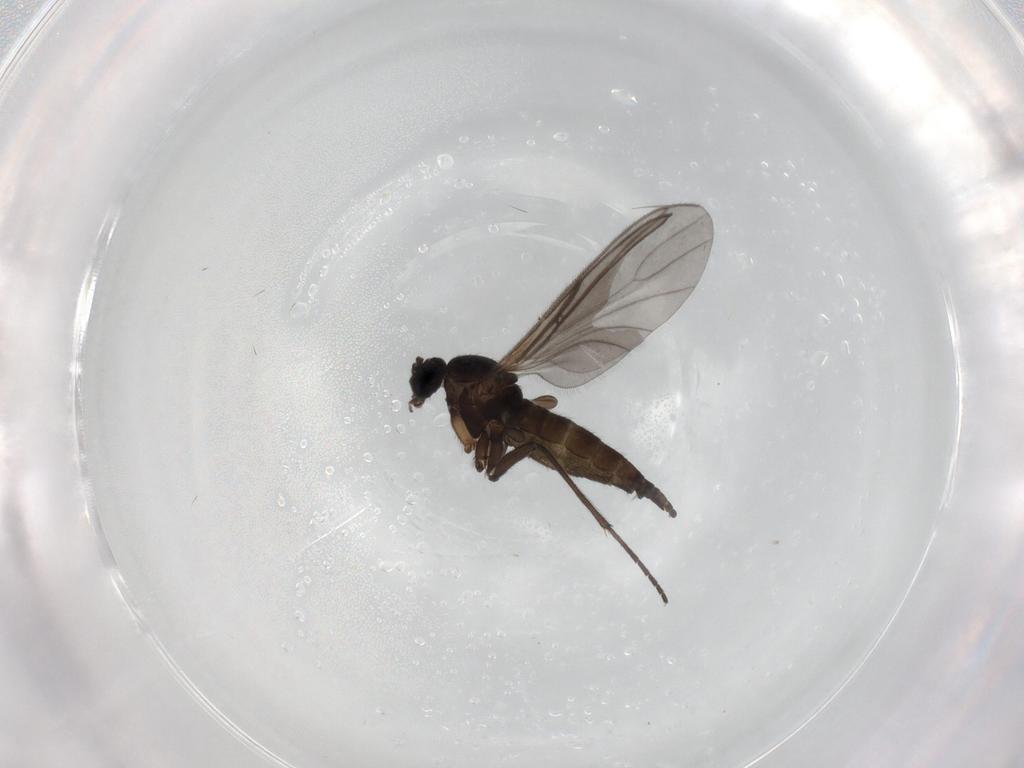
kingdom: Animalia
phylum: Arthropoda
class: Insecta
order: Diptera
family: Sciaridae
